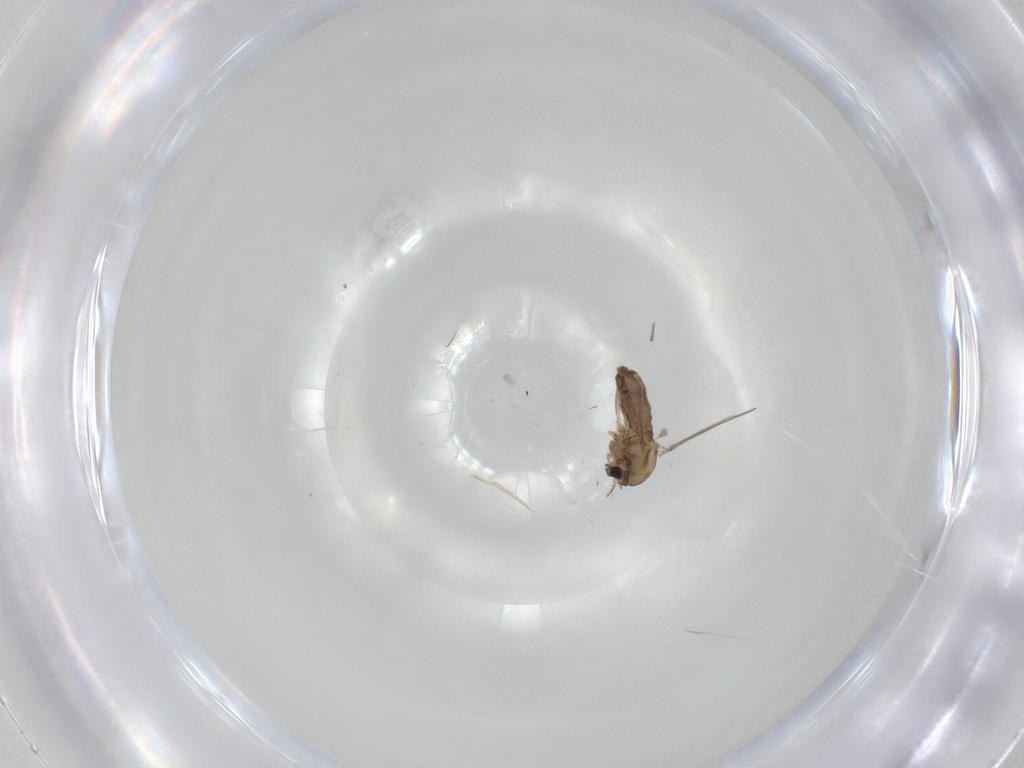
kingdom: Animalia
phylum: Arthropoda
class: Insecta
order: Diptera
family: Chironomidae
